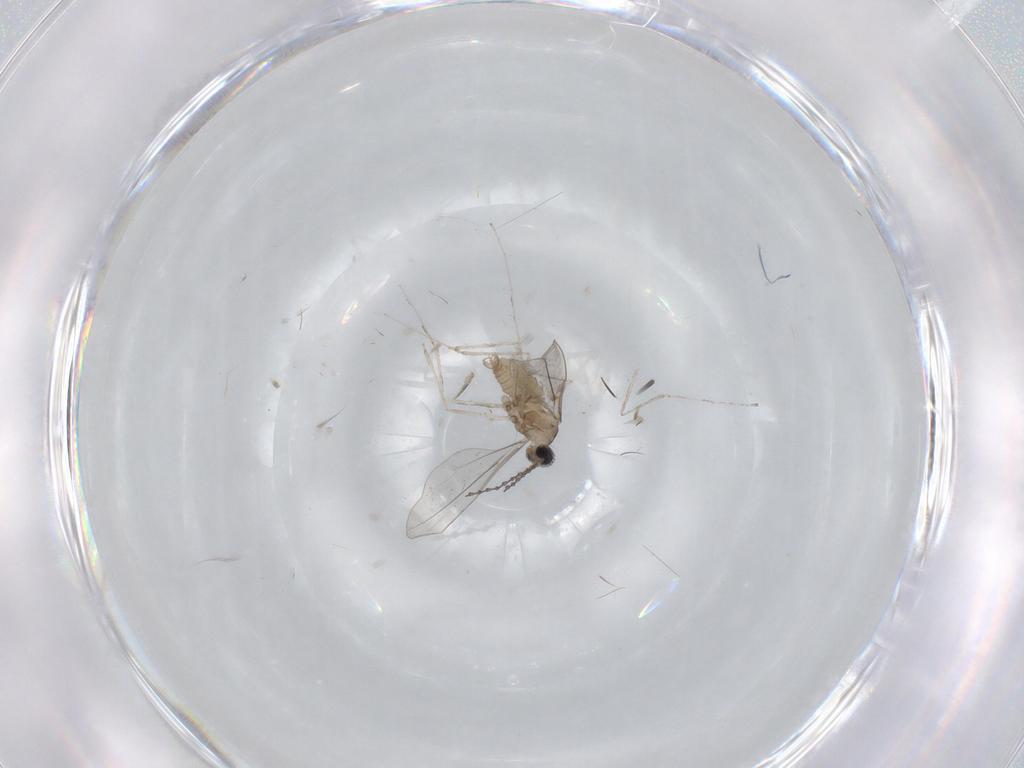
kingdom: Animalia
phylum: Arthropoda
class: Insecta
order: Diptera
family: Cecidomyiidae
